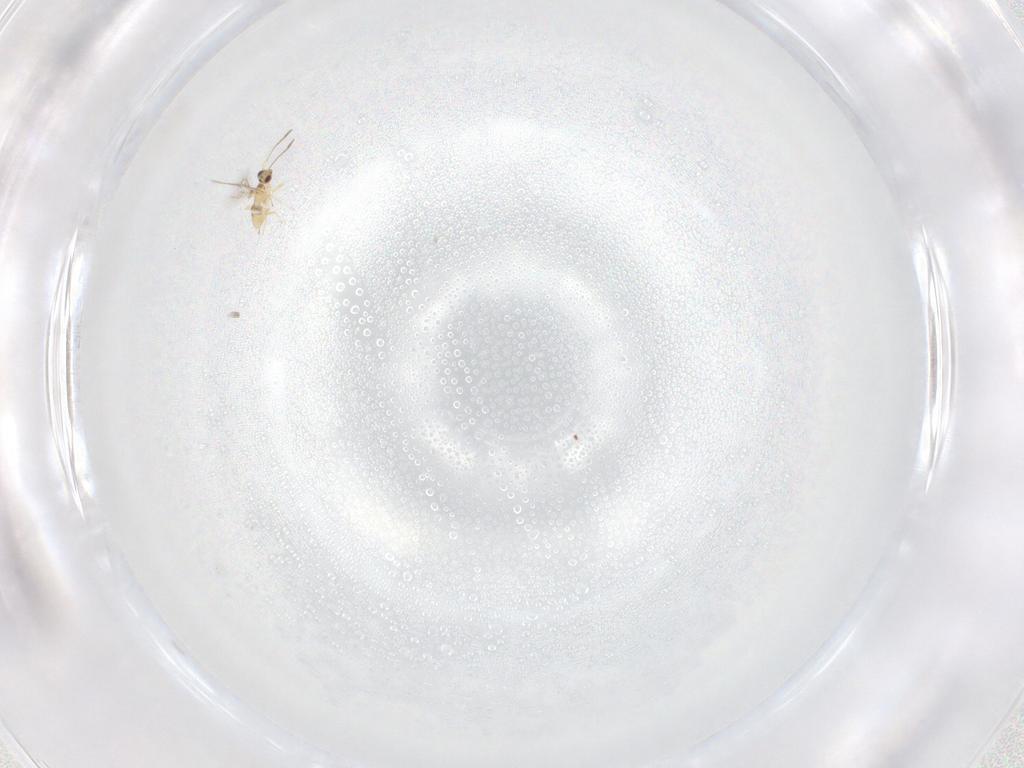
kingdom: Animalia
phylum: Arthropoda
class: Insecta
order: Hymenoptera
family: Mymaridae
